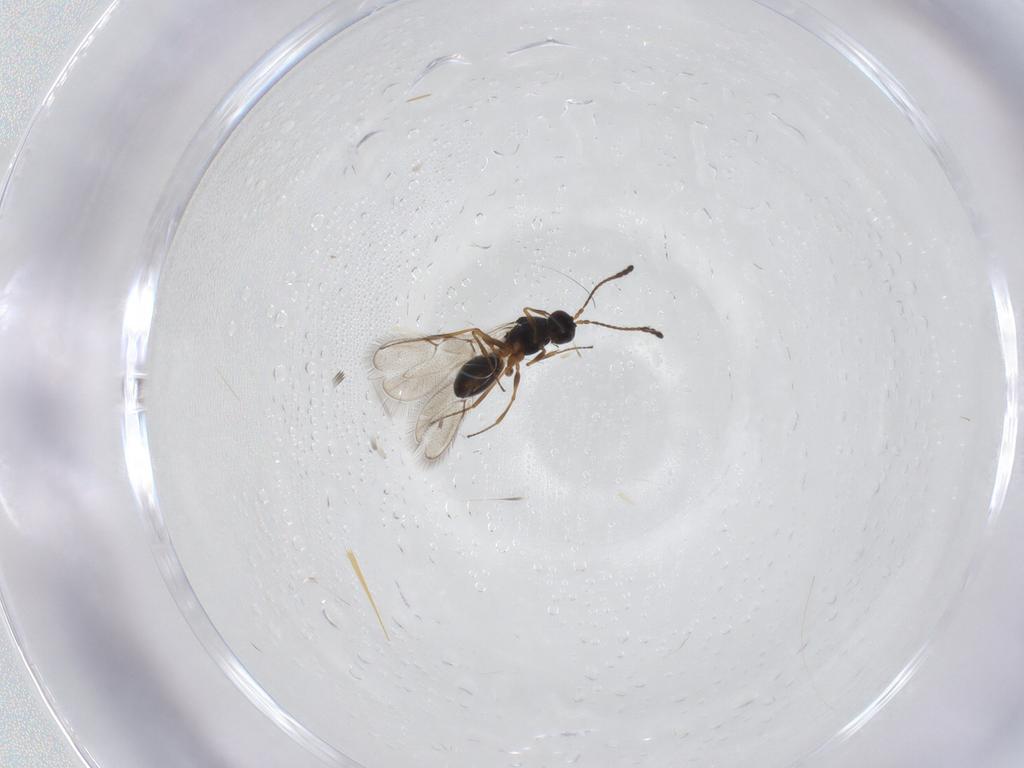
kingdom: Animalia
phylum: Arthropoda
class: Insecta
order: Hymenoptera
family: Figitidae
